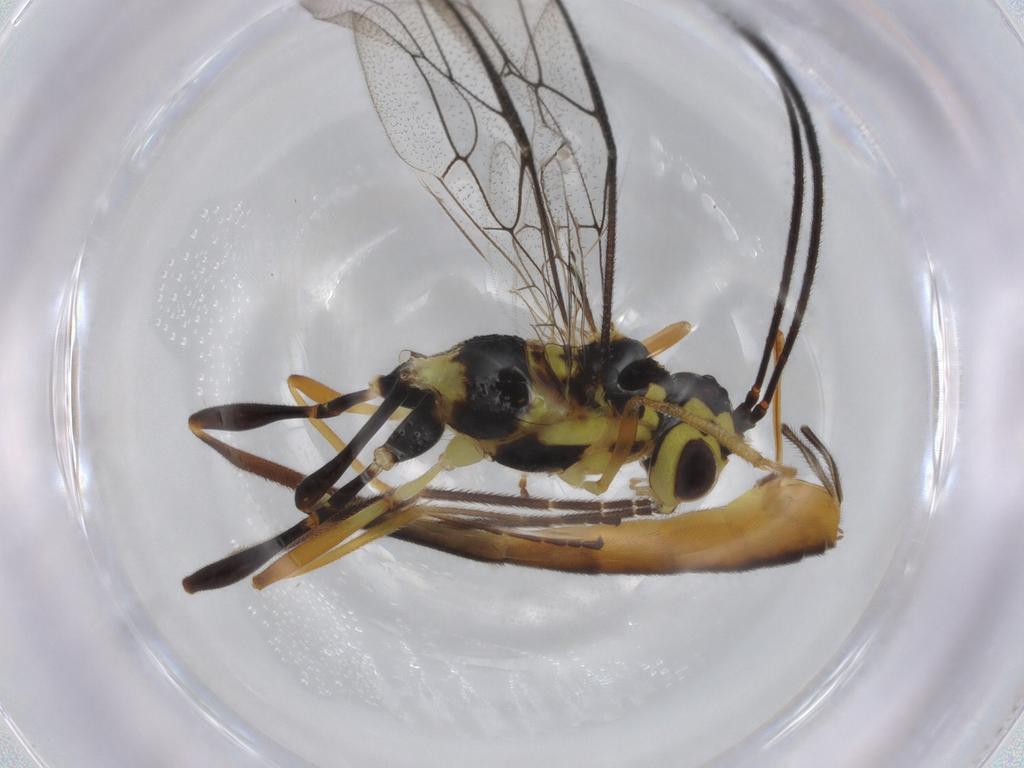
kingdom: Animalia
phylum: Arthropoda
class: Insecta
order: Hymenoptera
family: Ichneumonidae
